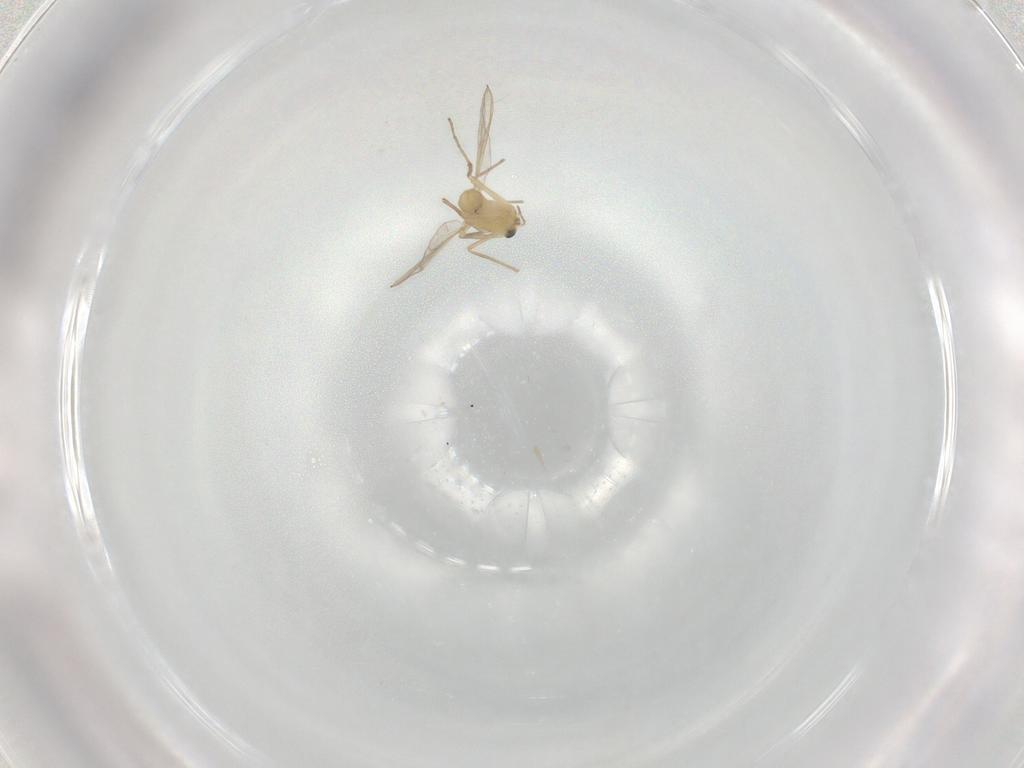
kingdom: Animalia
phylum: Arthropoda
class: Insecta
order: Diptera
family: Chironomidae
